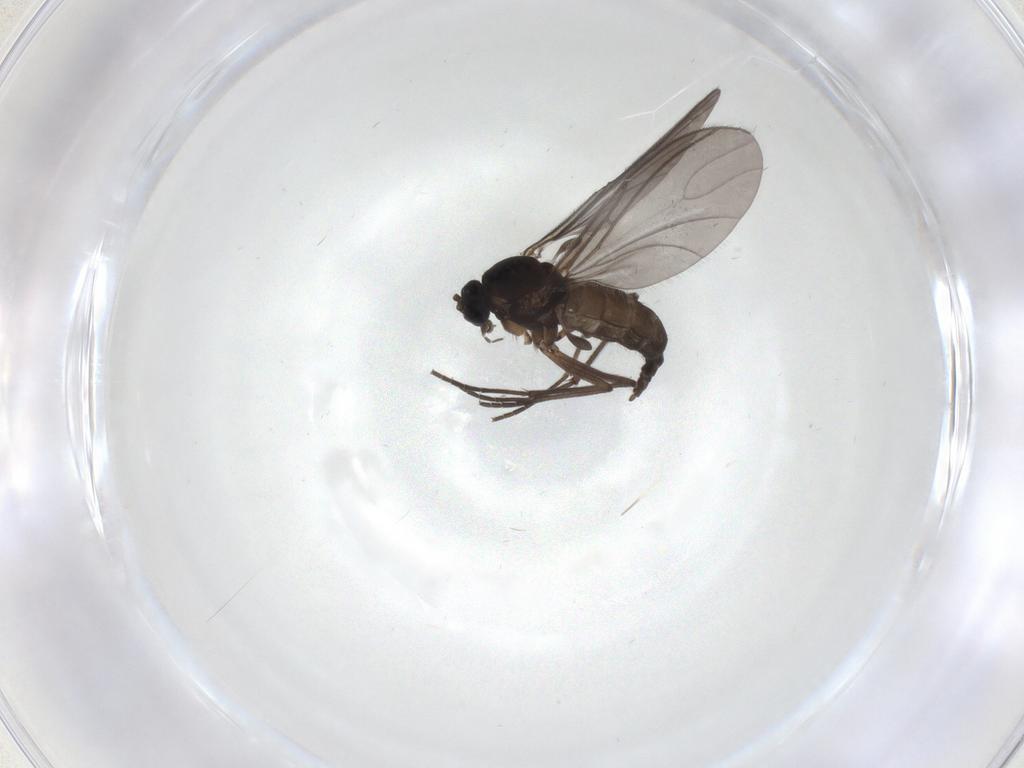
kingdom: Animalia
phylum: Arthropoda
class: Insecta
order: Diptera
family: Sciaridae
